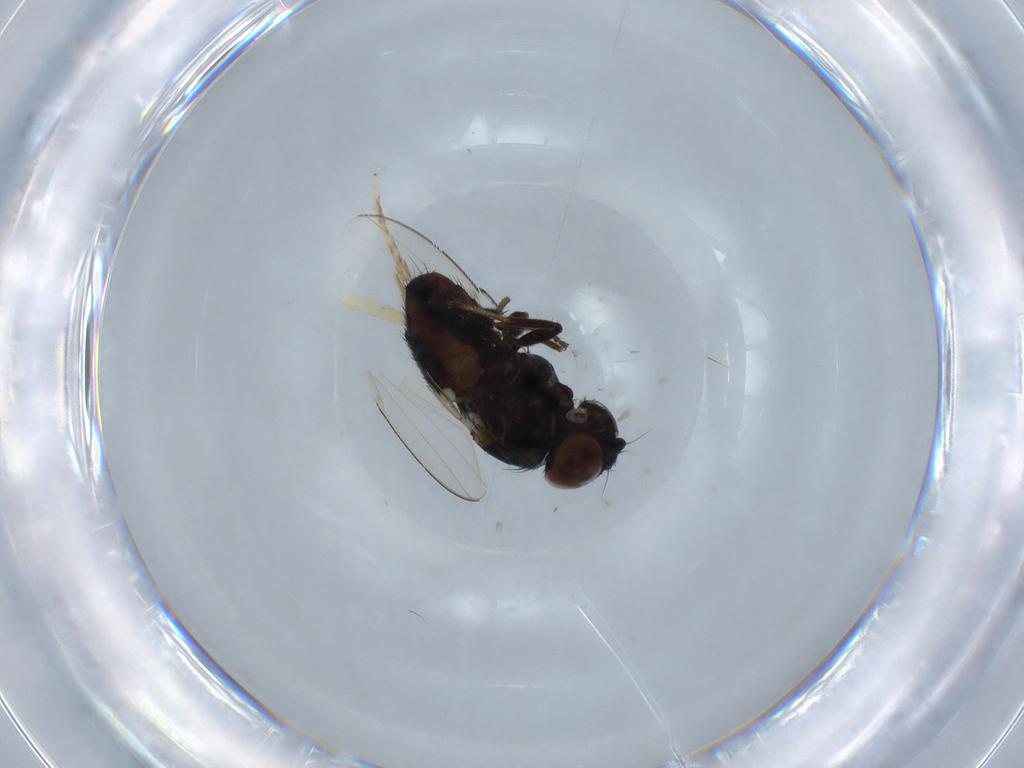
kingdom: Animalia
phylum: Arthropoda
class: Insecta
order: Diptera
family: Milichiidae
